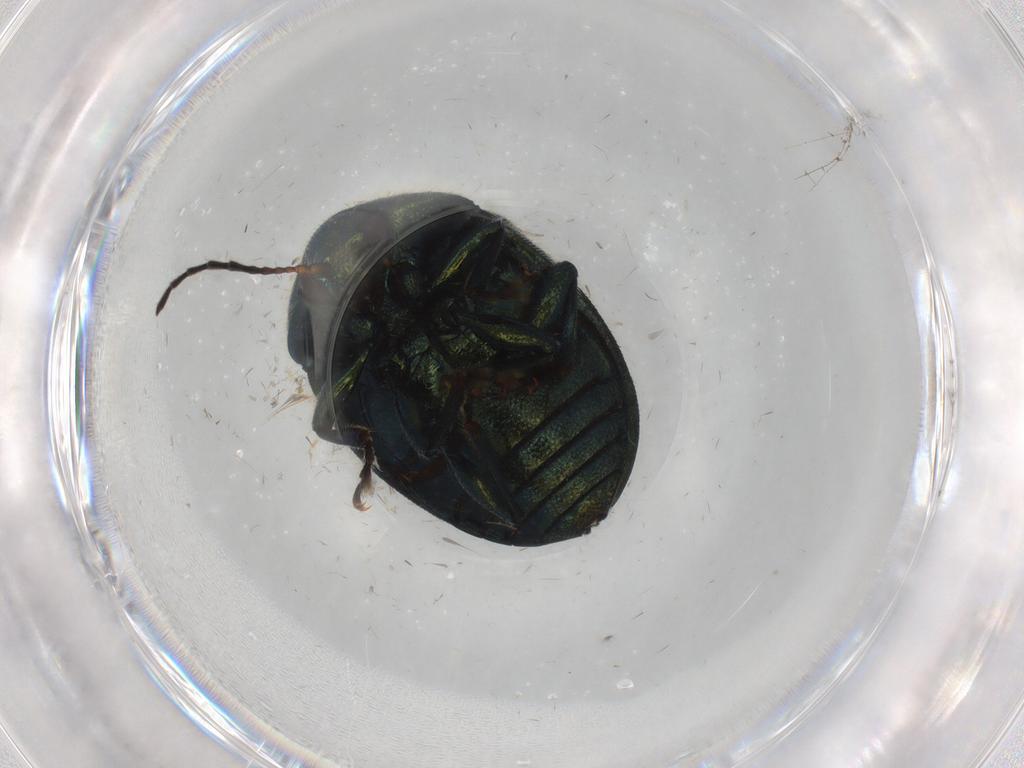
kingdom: Animalia
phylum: Arthropoda
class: Insecta
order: Coleoptera
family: Chrysomelidae
